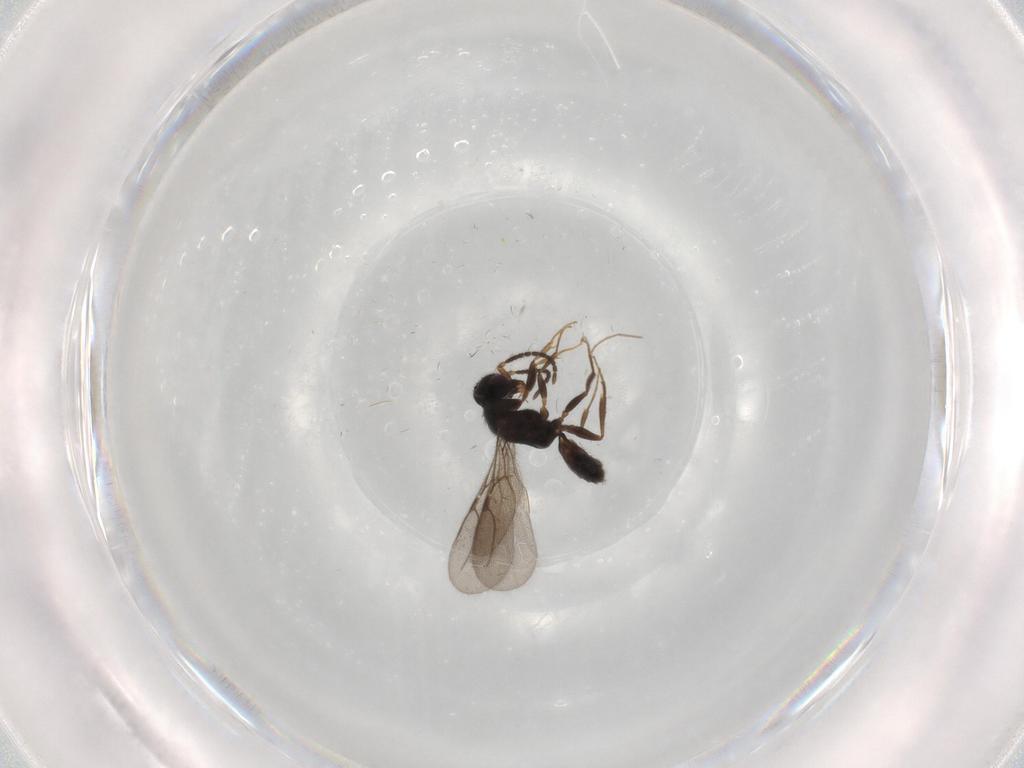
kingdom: Animalia
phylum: Arthropoda
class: Insecta
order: Hymenoptera
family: Bethylidae
